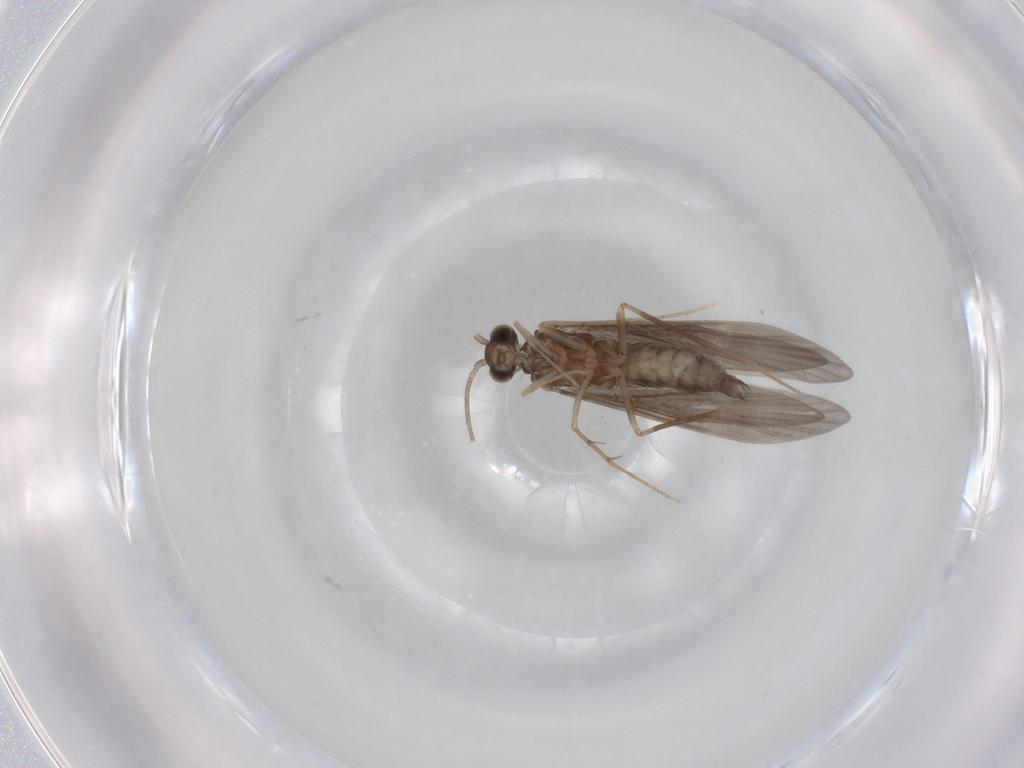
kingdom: Animalia
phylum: Arthropoda
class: Insecta
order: Trichoptera
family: Xiphocentronidae
